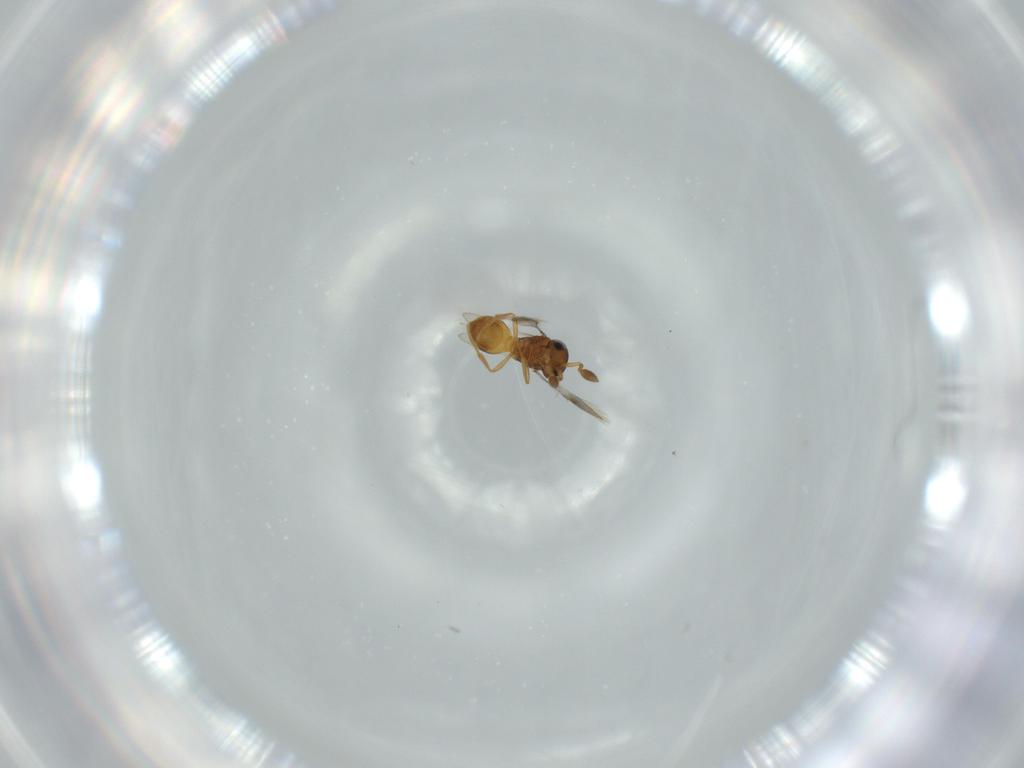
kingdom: Animalia
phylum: Arthropoda
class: Insecta
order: Hymenoptera
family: Scelionidae
